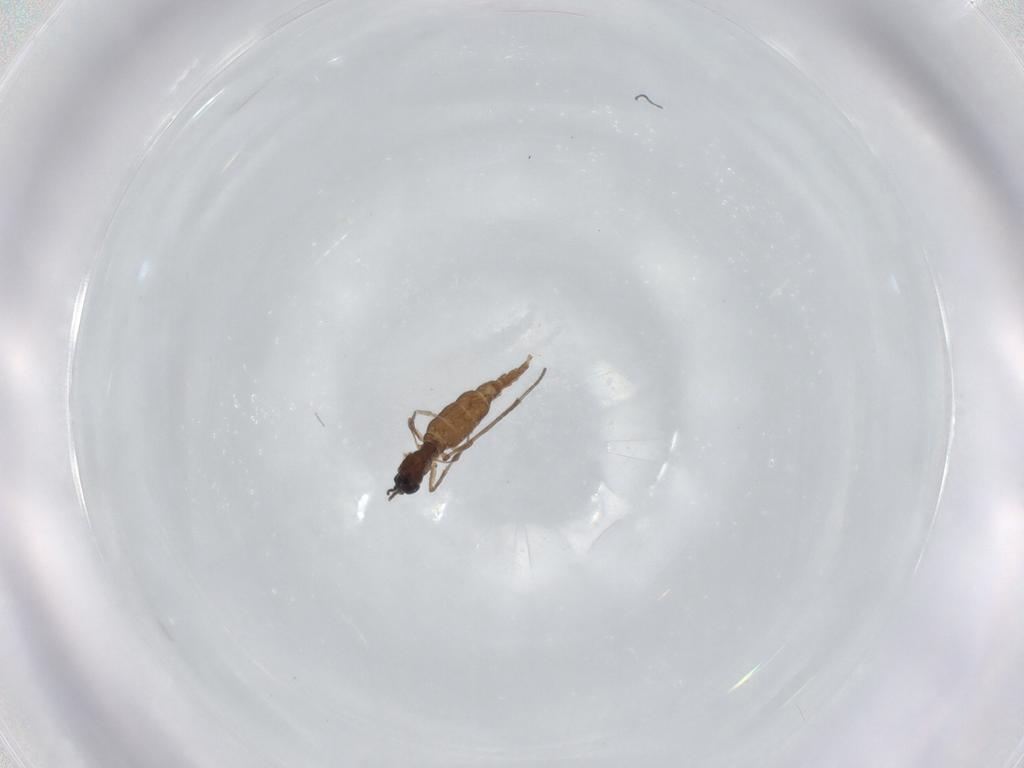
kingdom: Animalia
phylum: Arthropoda
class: Insecta
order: Diptera
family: Sciaridae
